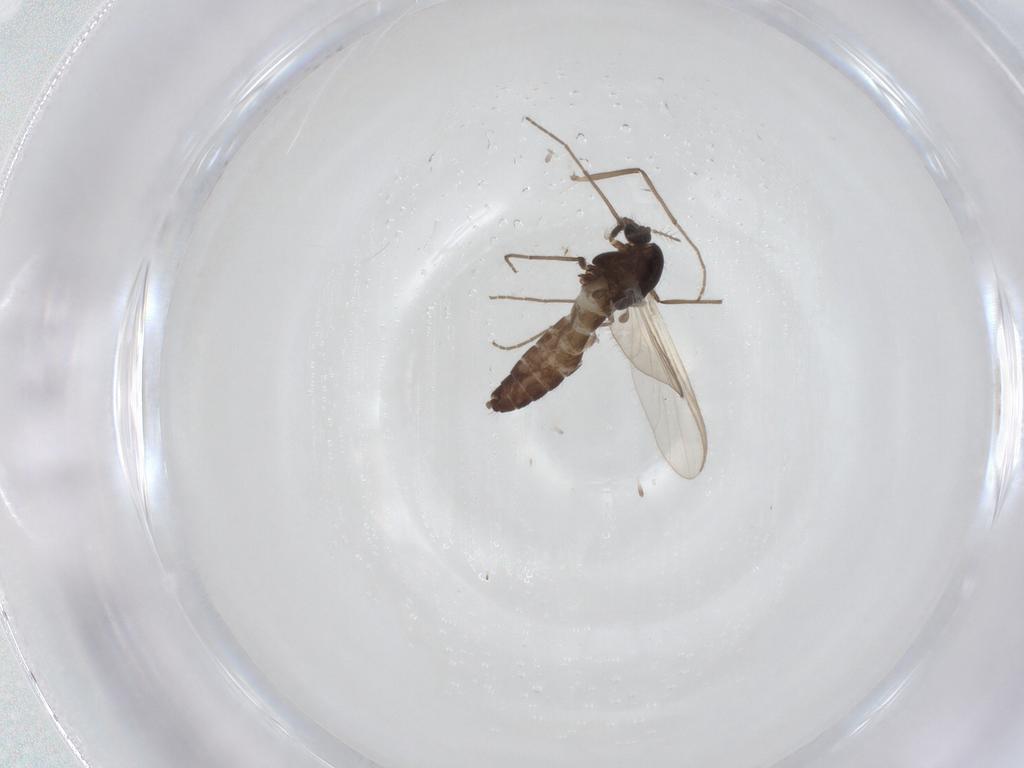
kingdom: Animalia
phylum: Arthropoda
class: Insecta
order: Diptera
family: Chironomidae
